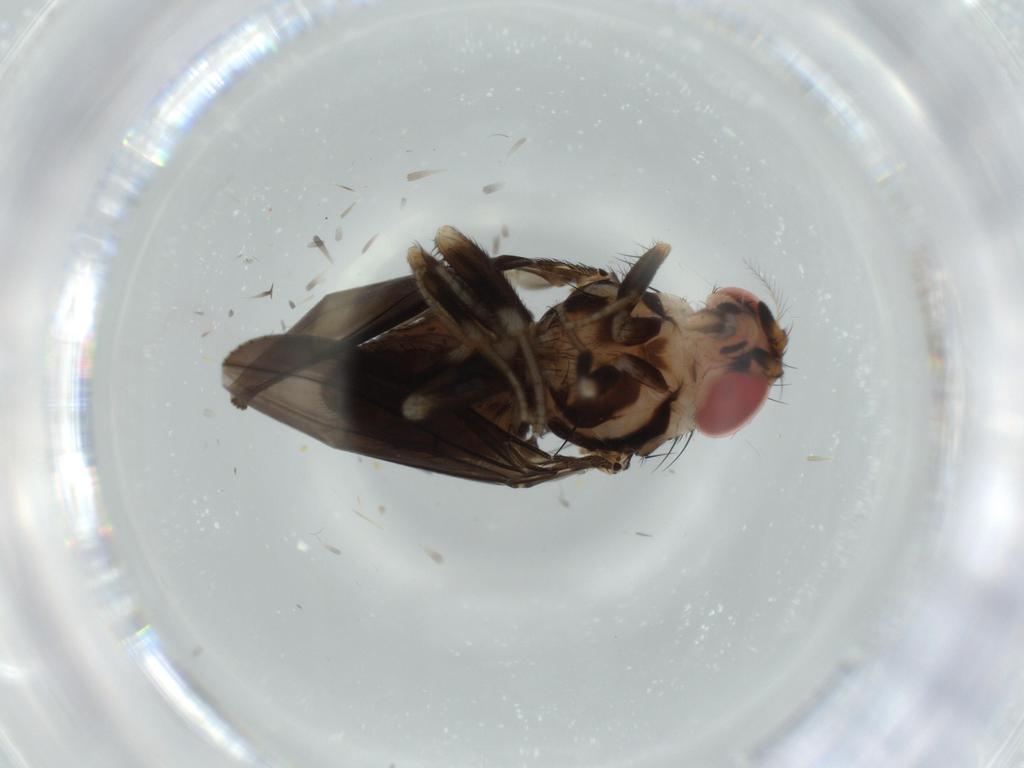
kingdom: Animalia
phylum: Arthropoda
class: Insecta
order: Diptera
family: Phoridae
